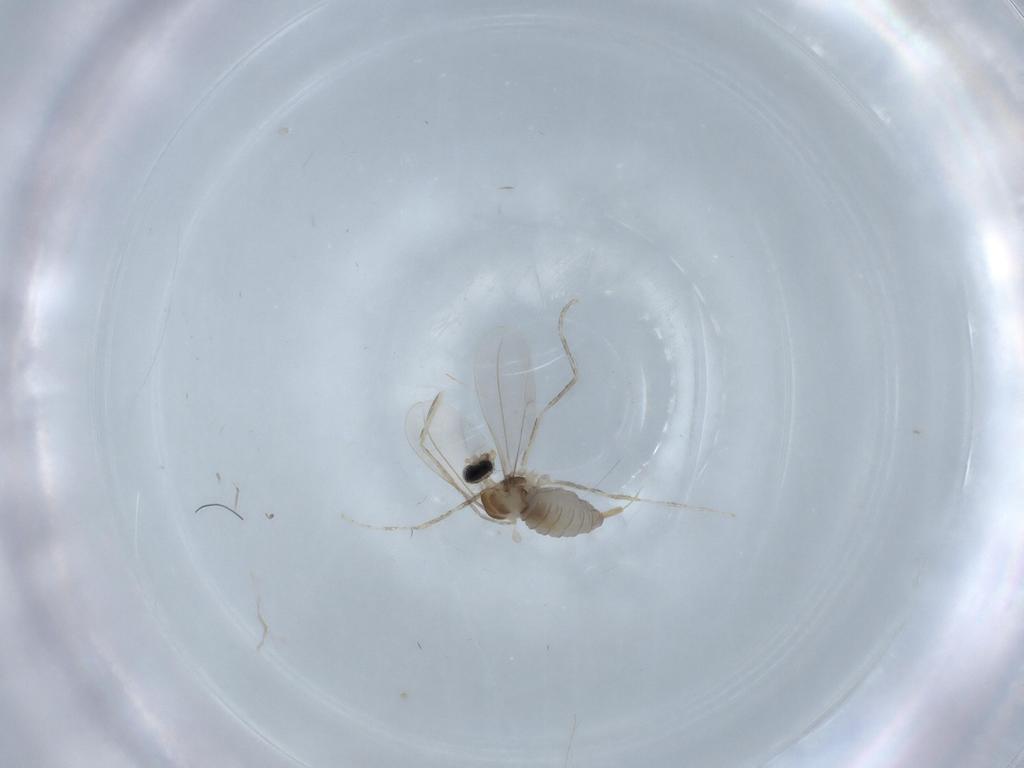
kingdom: Animalia
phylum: Arthropoda
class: Insecta
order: Diptera
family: Cecidomyiidae
